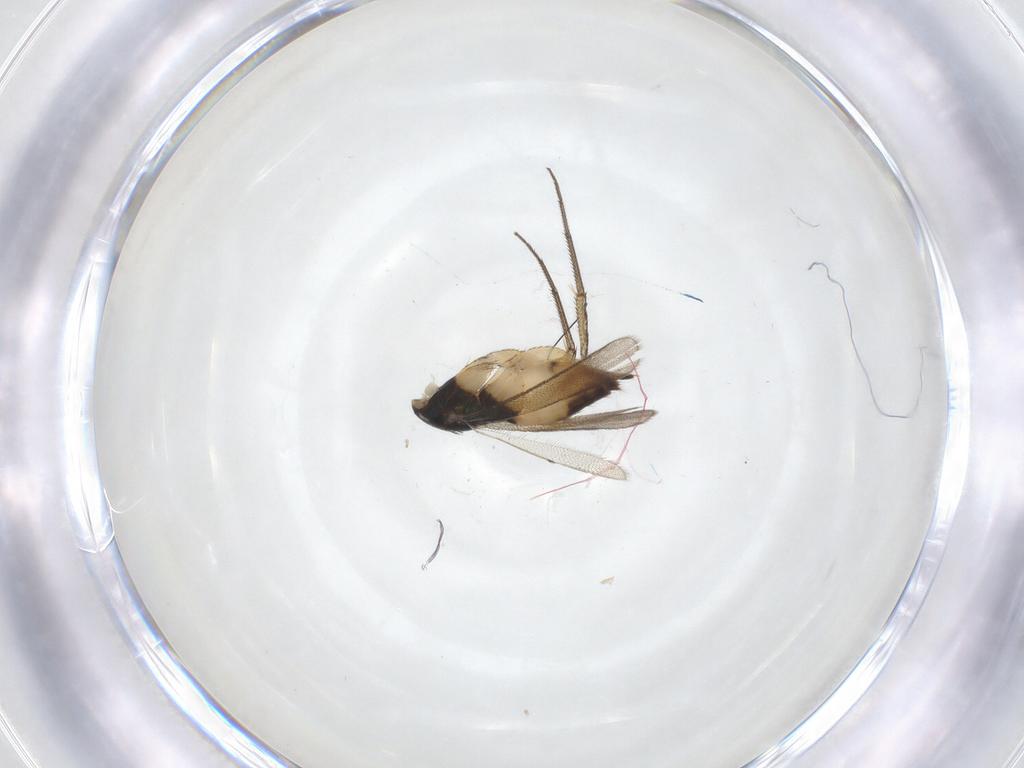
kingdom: Animalia
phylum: Arthropoda
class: Insecta
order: Hymenoptera
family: Eulophidae
